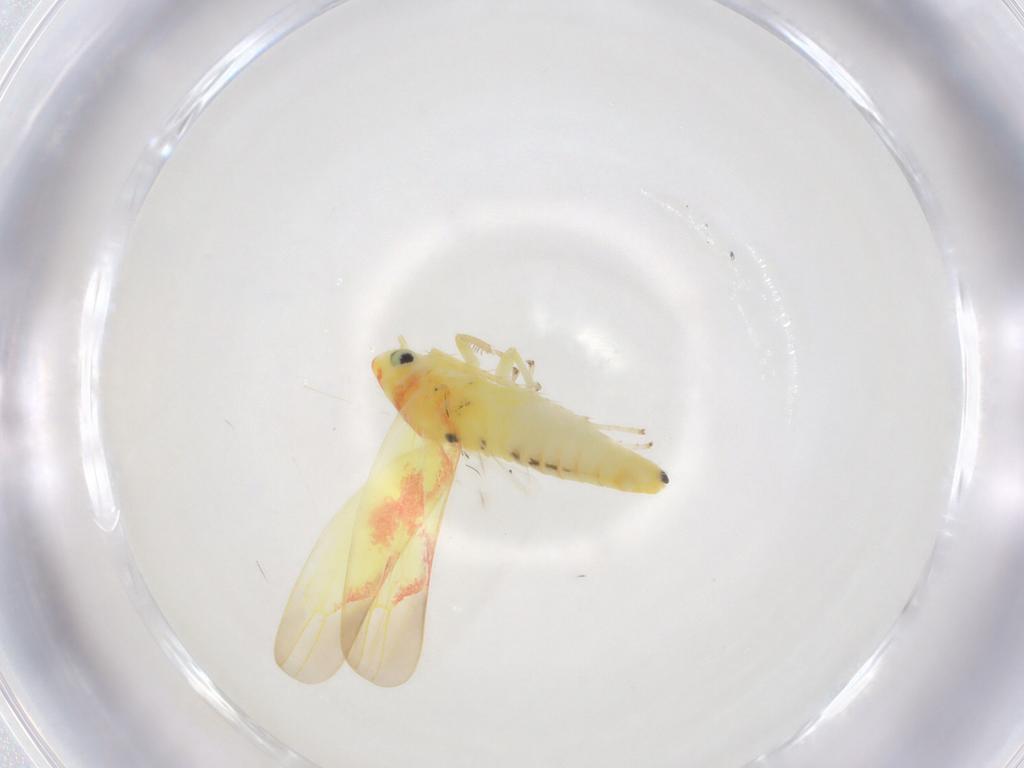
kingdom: Animalia
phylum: Arthropoda
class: Insecta
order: Hemiptera
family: Cicadellidae
